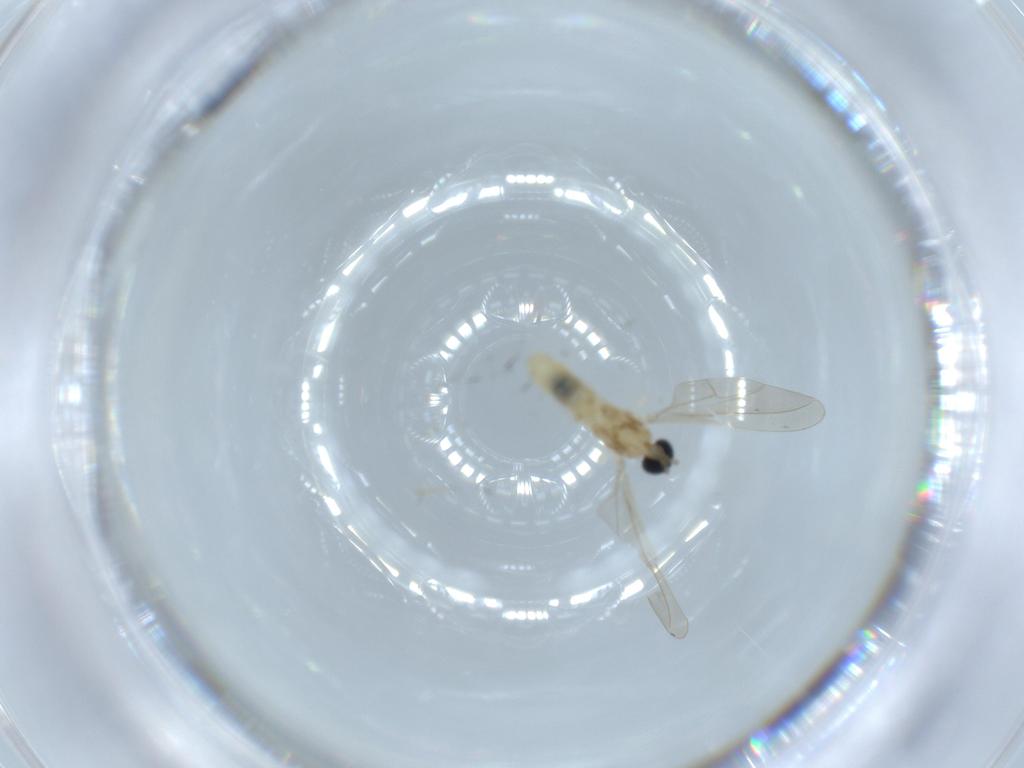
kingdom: Animalia
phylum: Arthropoda
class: Insecta
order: Diptera
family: Cecidomyiidae
